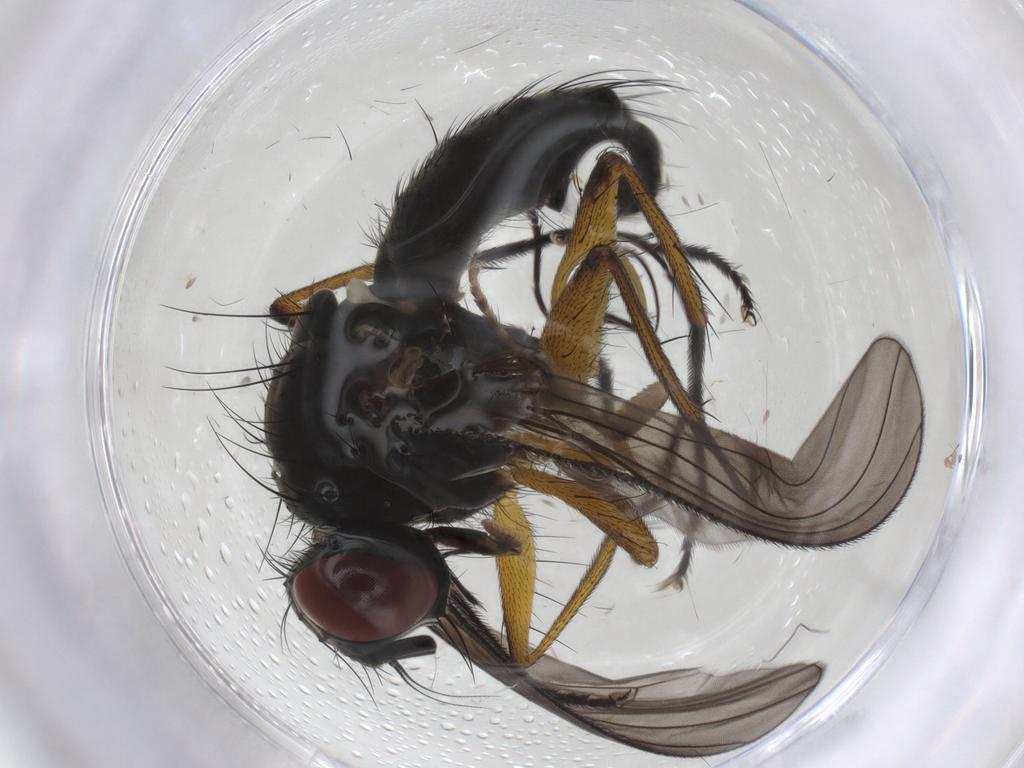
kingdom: Animalia
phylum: Arthropoda
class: Insecta
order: Diptera
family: Muscidae
